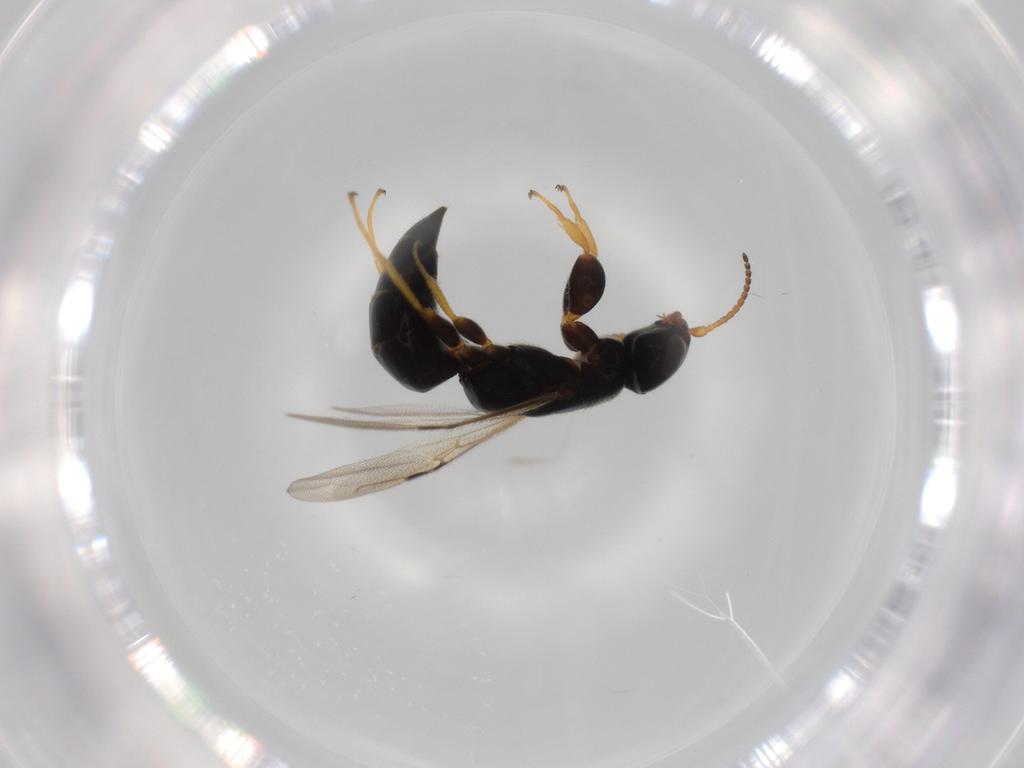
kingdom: Animalia
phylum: Arthropoda
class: Insecta
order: Hymenoptera
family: Bethylidae
